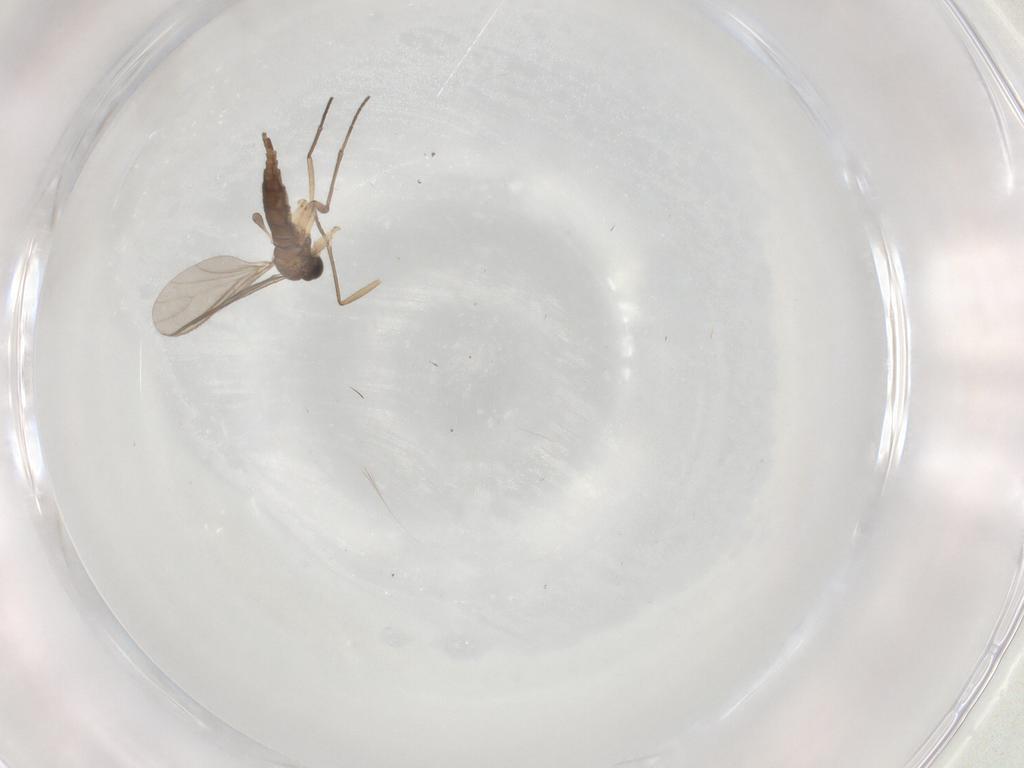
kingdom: Animalia
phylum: Arthropoda
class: Insecta
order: Diptera
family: Sciaridae
